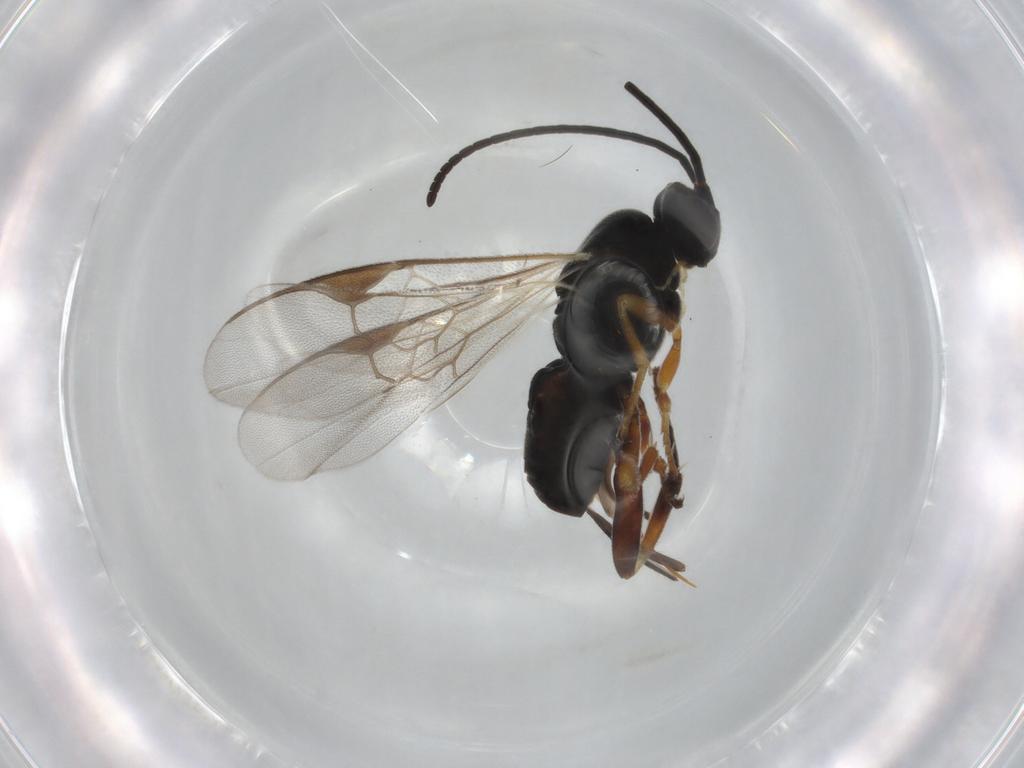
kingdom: Animalia
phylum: Arthropoda
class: Insecta
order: Hymenoptera
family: Braconidae
